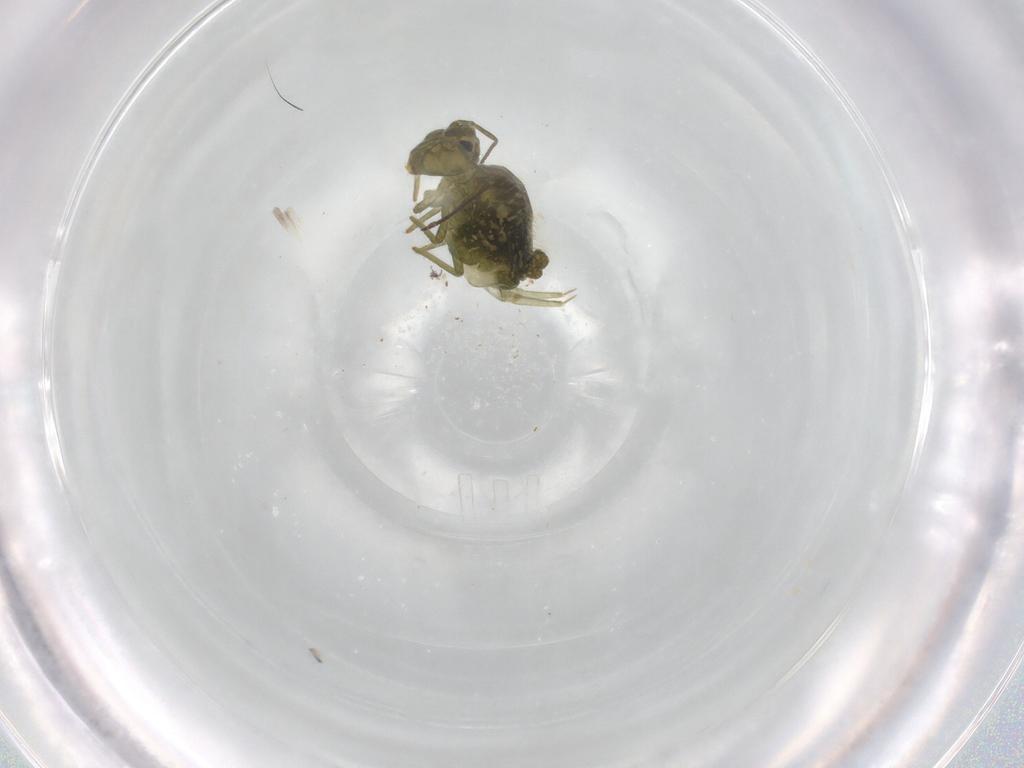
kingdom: Animalia
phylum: Arthropoda
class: Collembola
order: Symphypleona
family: Sminthuridae
